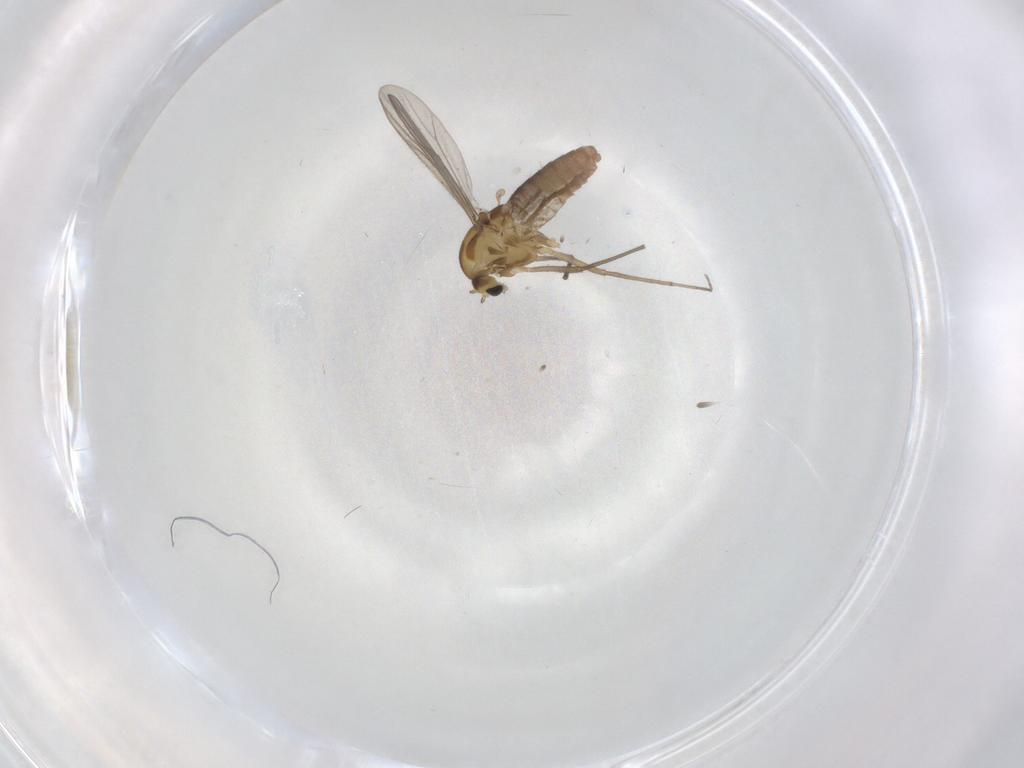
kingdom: Animalia
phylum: Arthropoda
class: Insecta
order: Diptera
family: Chironomidae
